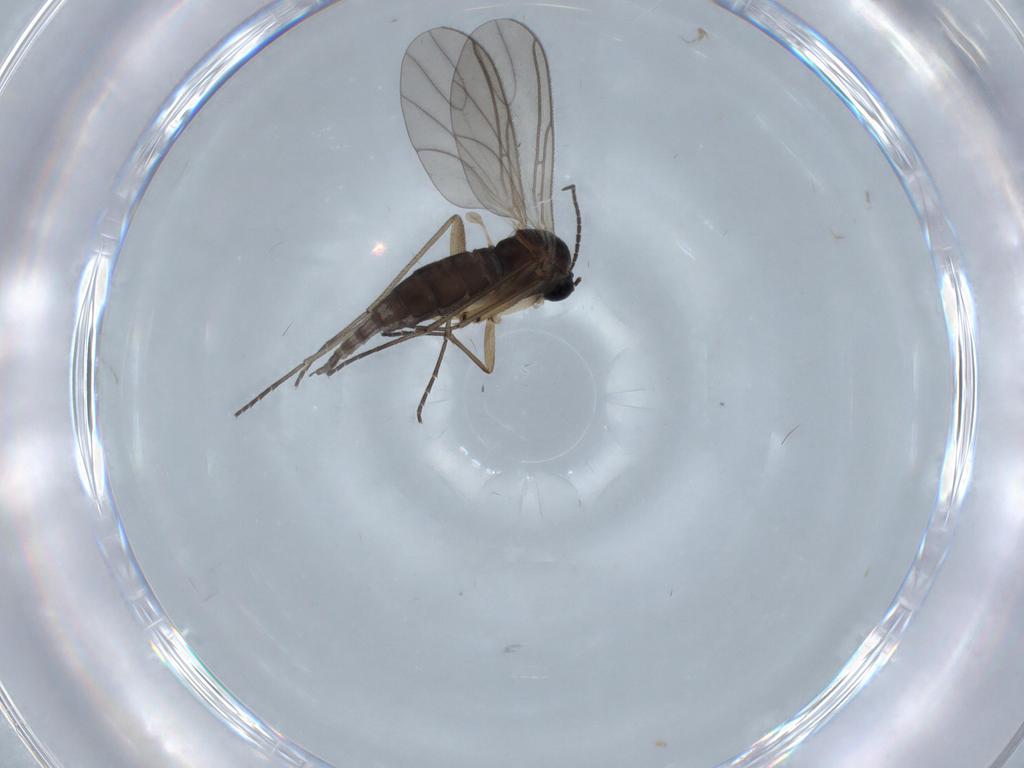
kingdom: Animalia
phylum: Arthropoda
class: Insecta
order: Diptera
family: Sciaridae
